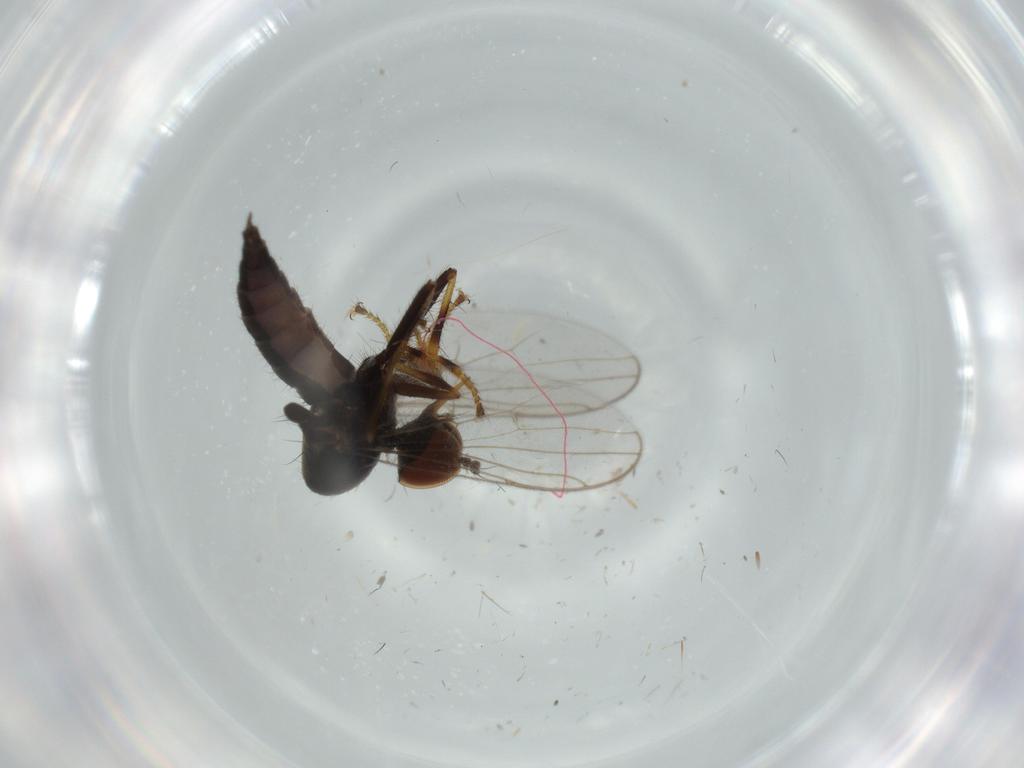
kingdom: Animalia
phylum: Arthropoda
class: Insecta
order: Diptera
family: Hybotidae
